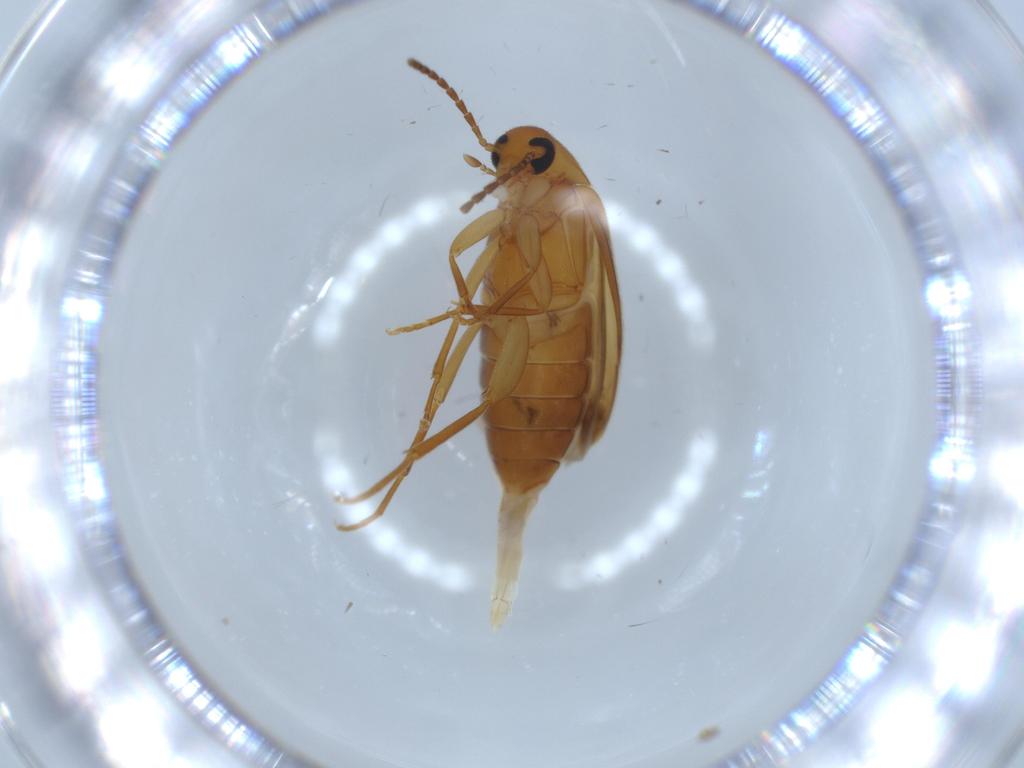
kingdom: Animalia
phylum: Arthropoda
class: Insecta
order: Coleoptera
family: Scraptiidae
